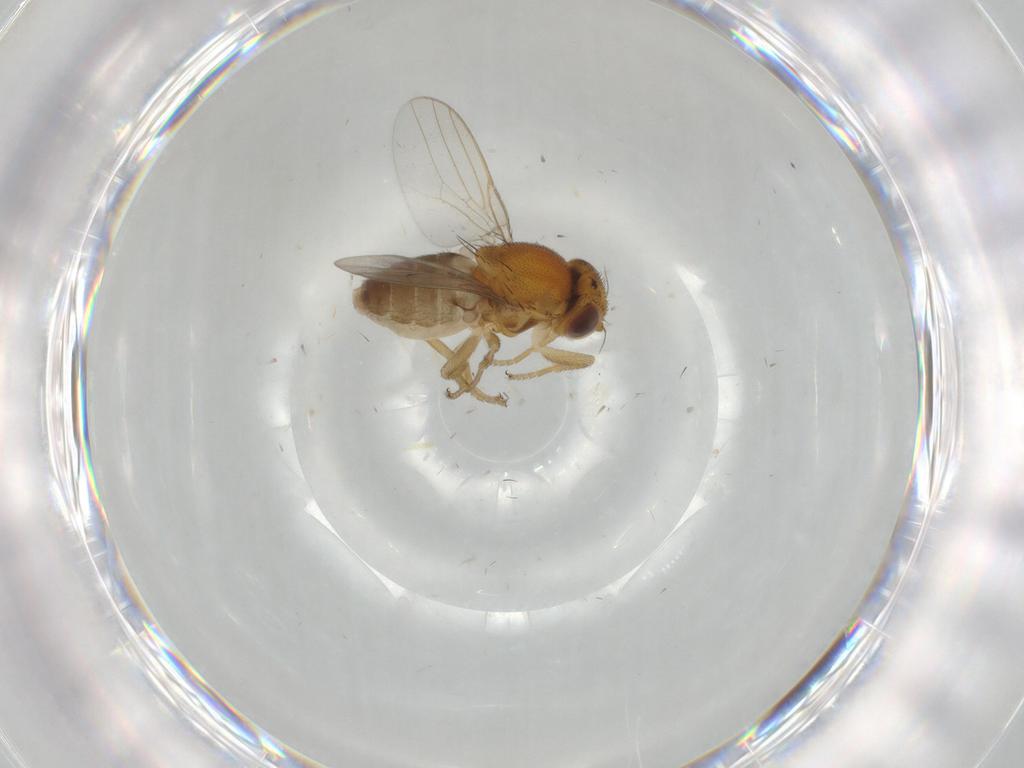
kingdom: Animalia
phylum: Arthropoda
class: Insecta
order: Diptera
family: Chloropidae
